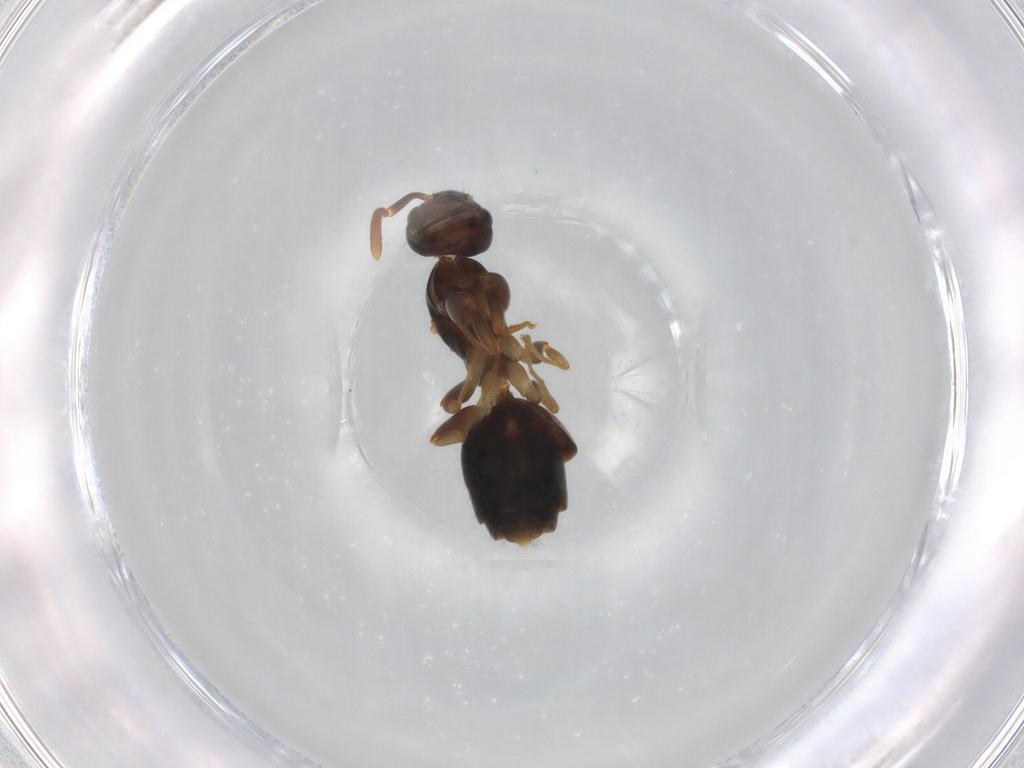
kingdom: Animalia
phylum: Arthropoda
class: Insecta
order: Hymenoptera
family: Formicidae
